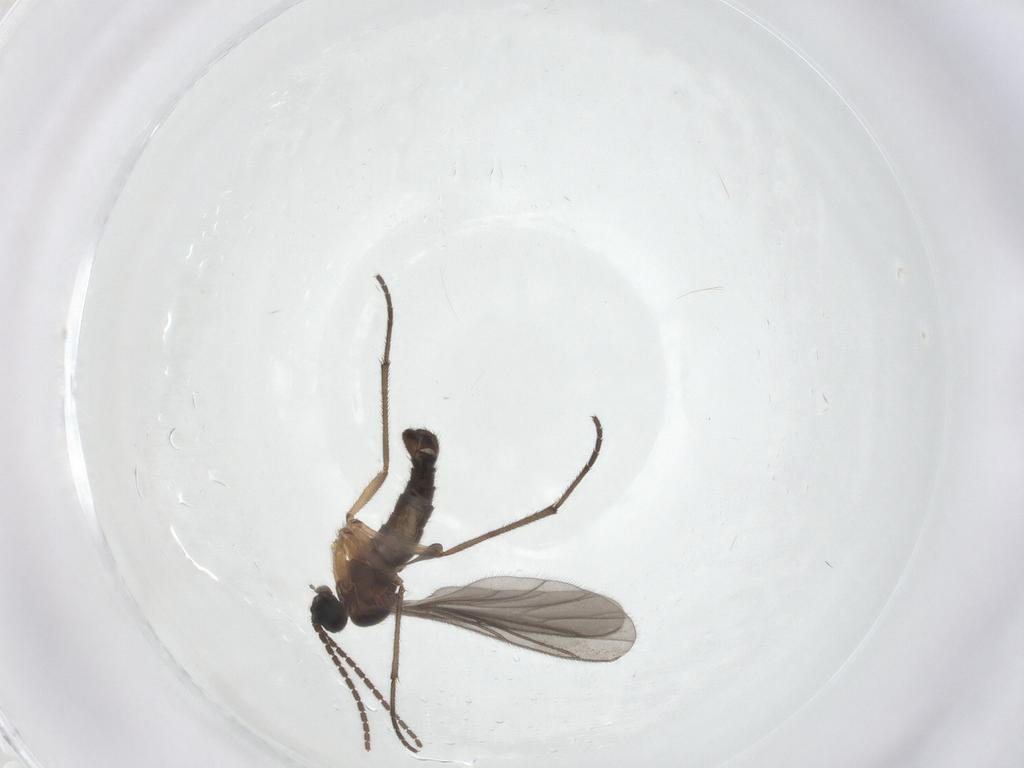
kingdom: Animalia
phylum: Arthropoda
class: Insecta
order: Diptera
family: Sciaridae
